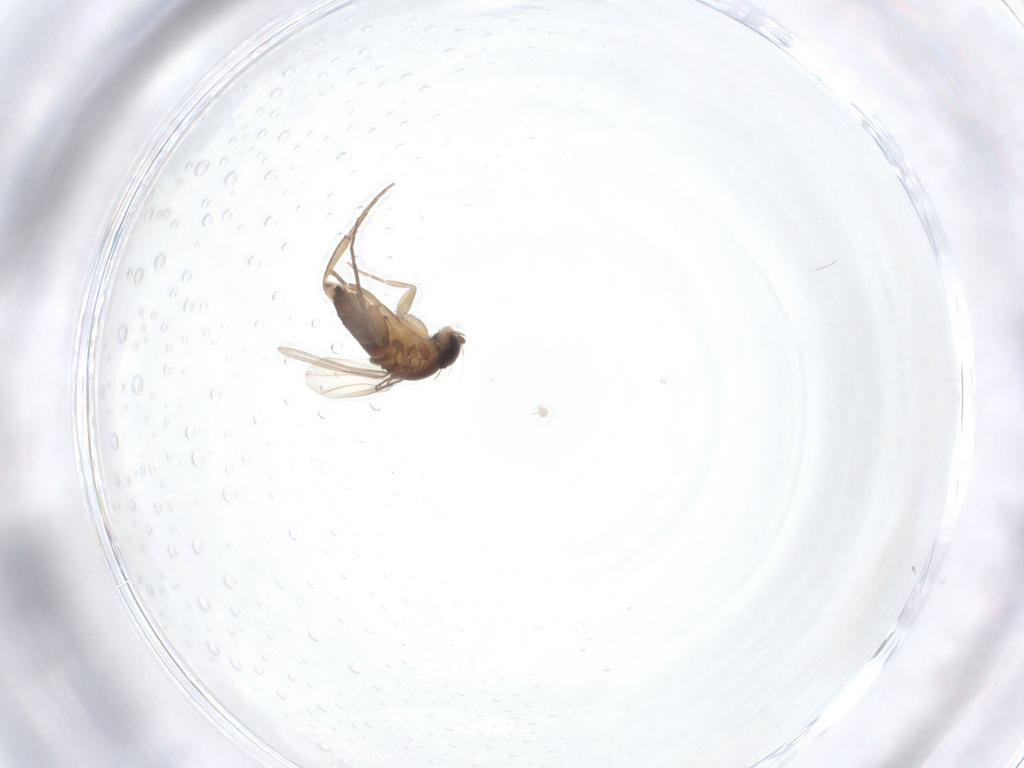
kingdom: Animalia
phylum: Arthropoda
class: Insecta
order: Diptera
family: Phoridae
